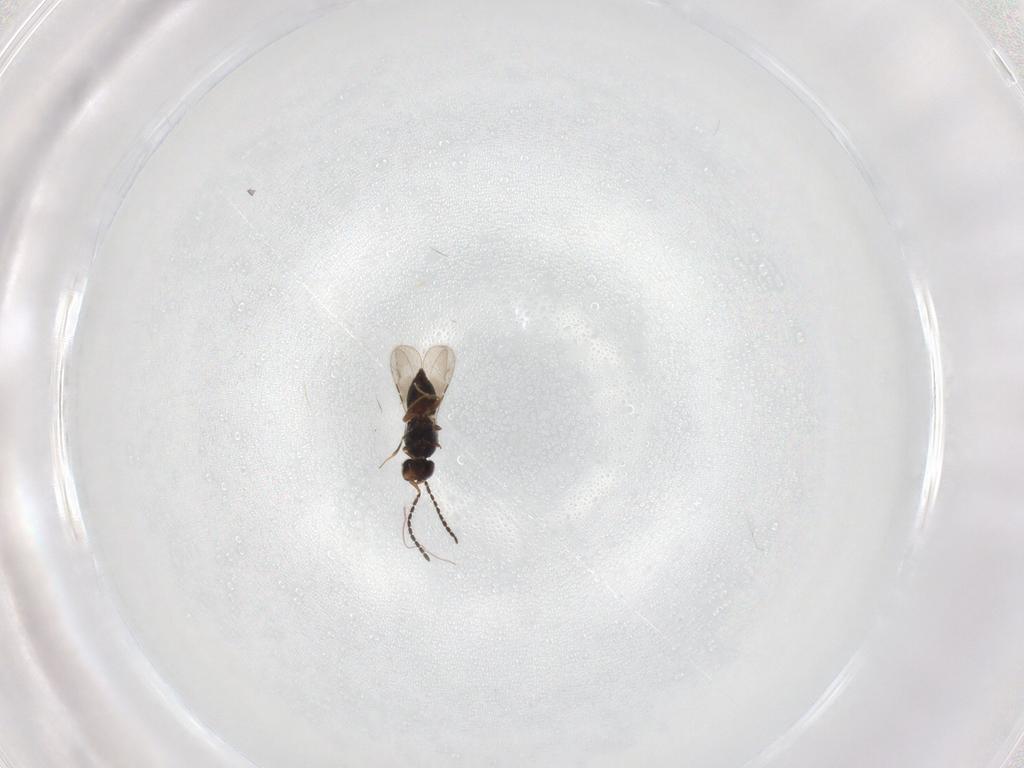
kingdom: Animalia
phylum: Arthropoda
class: Insecta
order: Hymenoptera
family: Ceraphronidae
